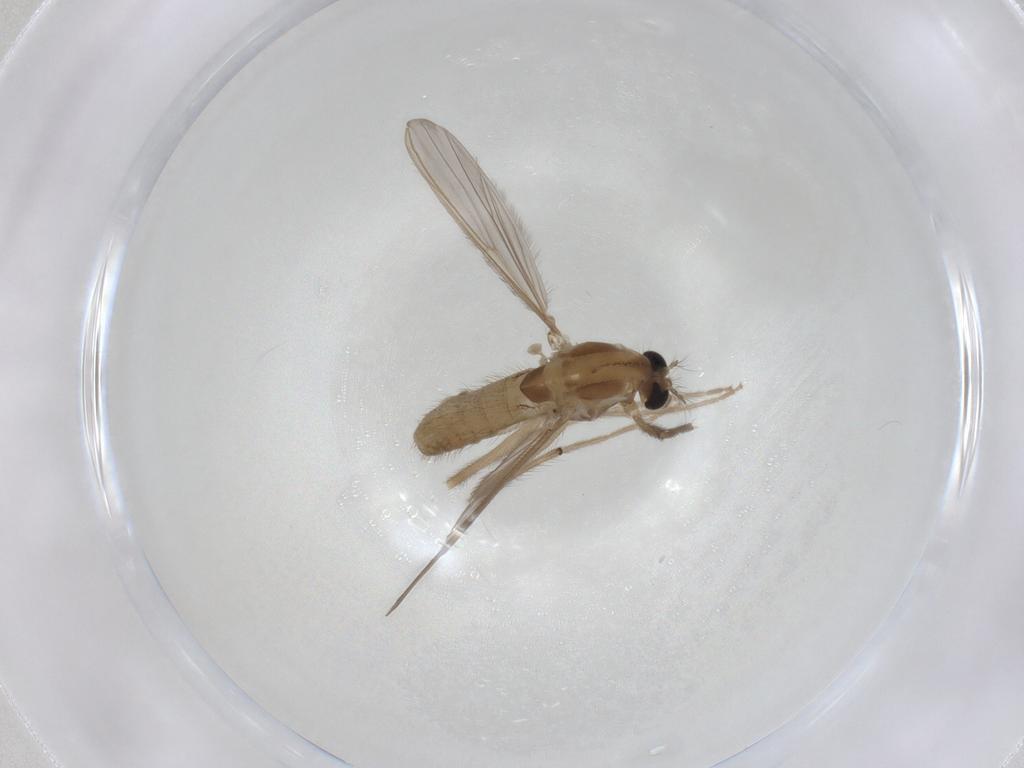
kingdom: Animalia
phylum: Arthropoda
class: Insecta
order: Diptera
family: Chironomidae
